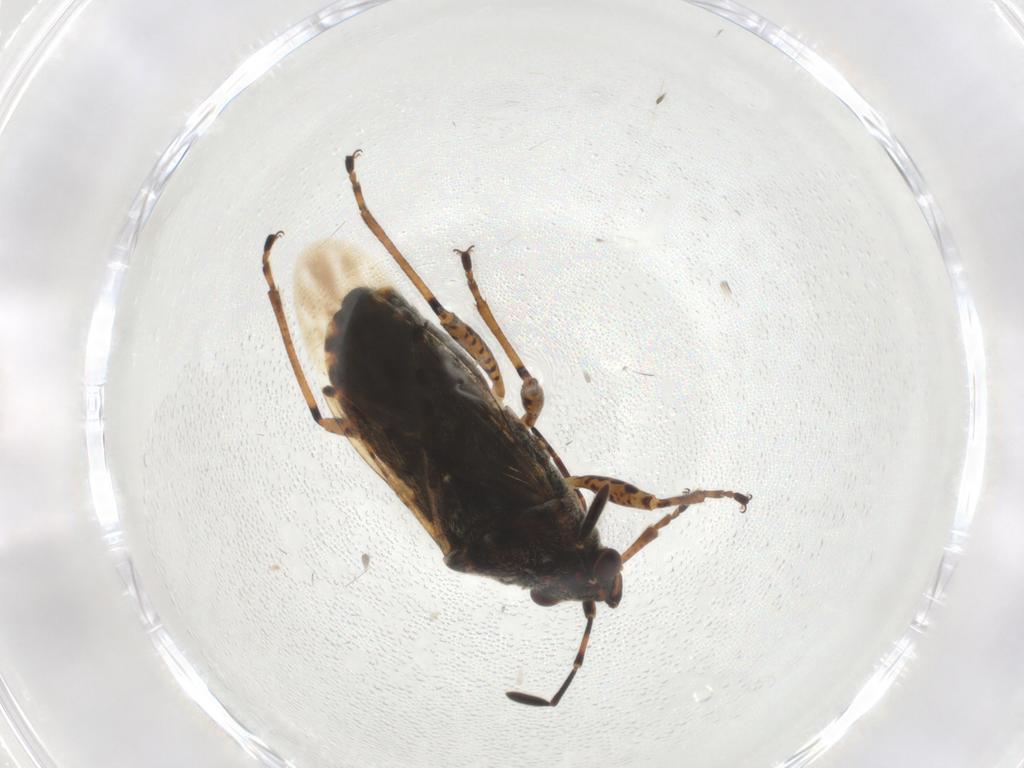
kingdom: Animalia
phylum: Arthropoda
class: Insecta
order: Hemiptera
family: Lygaeidae
